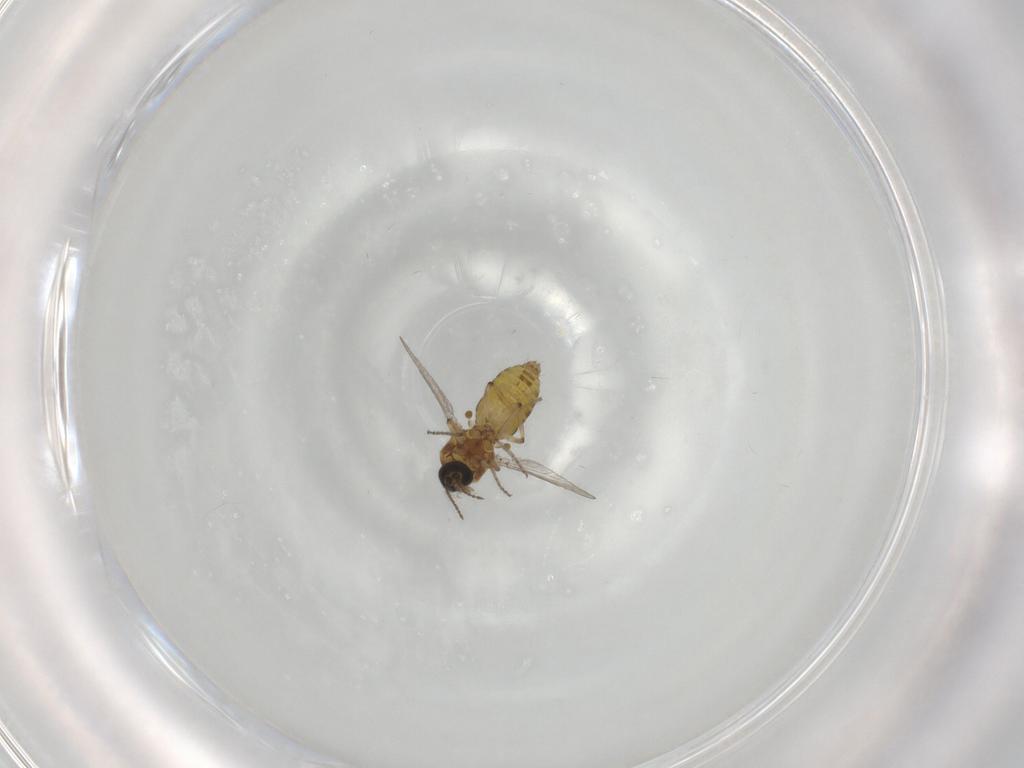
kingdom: Animalia
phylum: Arthropoda
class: Insecta
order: Diptera
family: Ceratopogonidae
